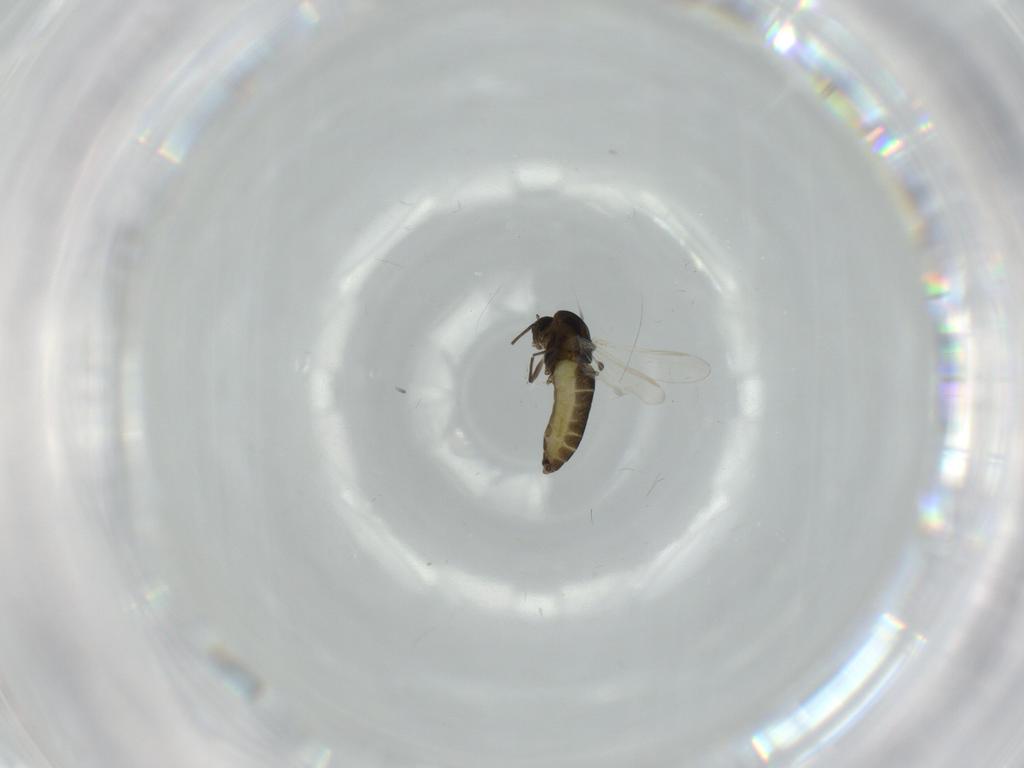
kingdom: Animalia
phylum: Arthropoda
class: Insecta
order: Diptera
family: Chironomidae
